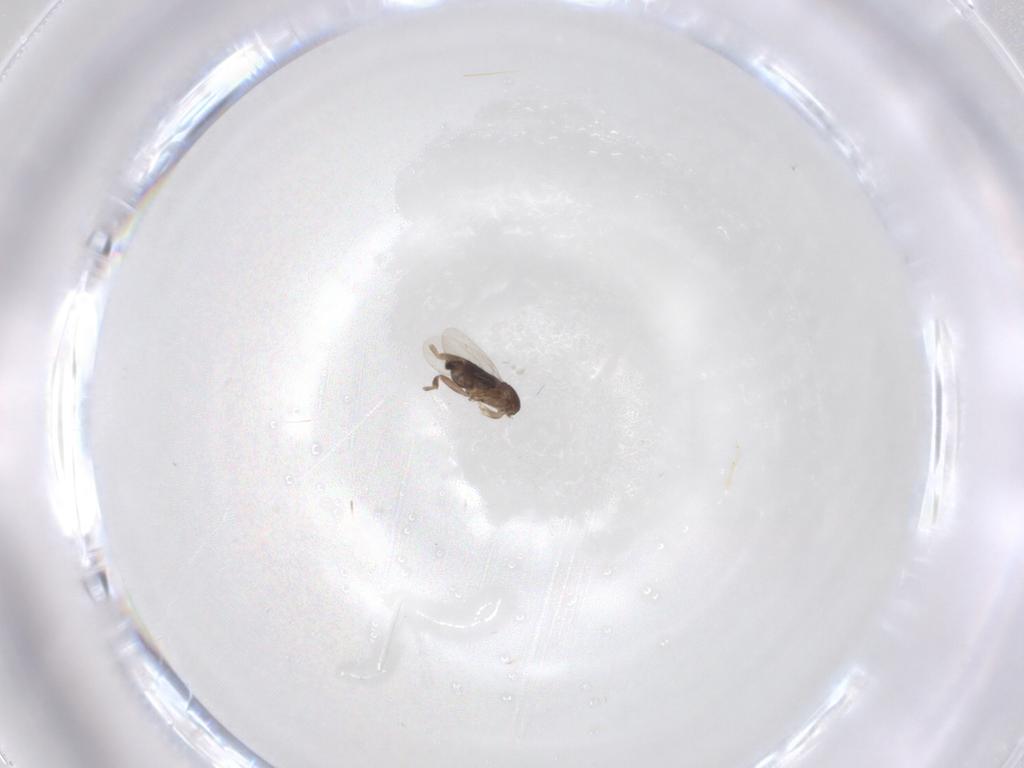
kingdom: Animalia
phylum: Arthropoda
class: Insecta
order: Diptera
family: Phoridae
